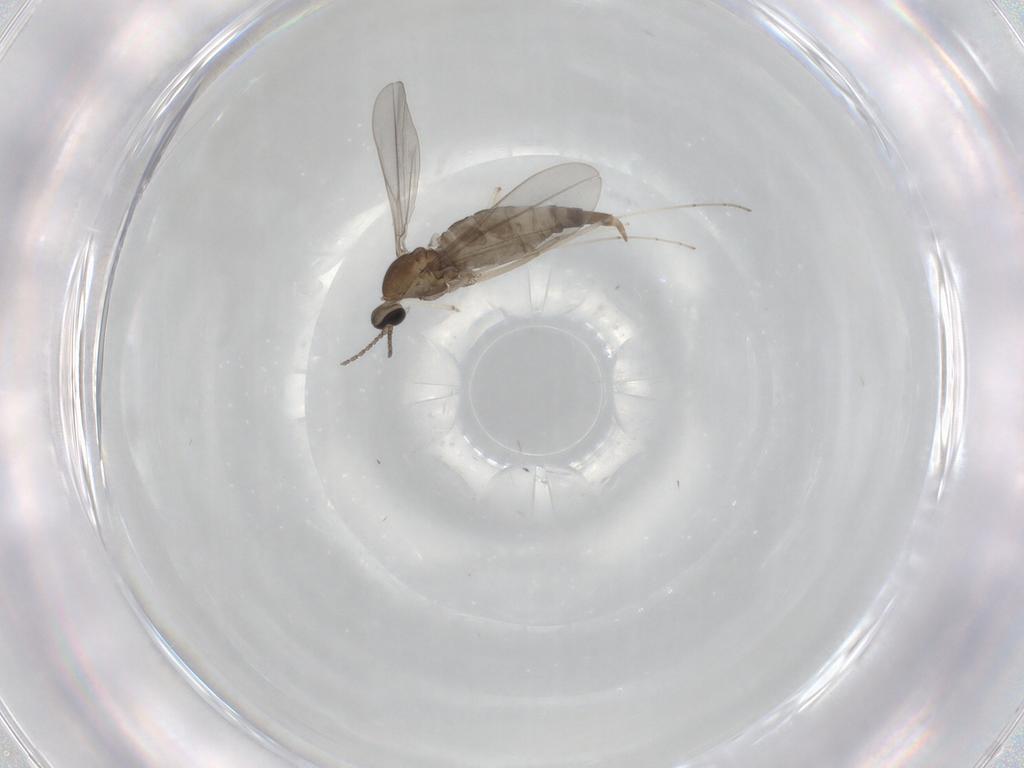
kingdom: Animalia
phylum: Arthropoda
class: Insecta
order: Diptera
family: Cecidomyiidae
